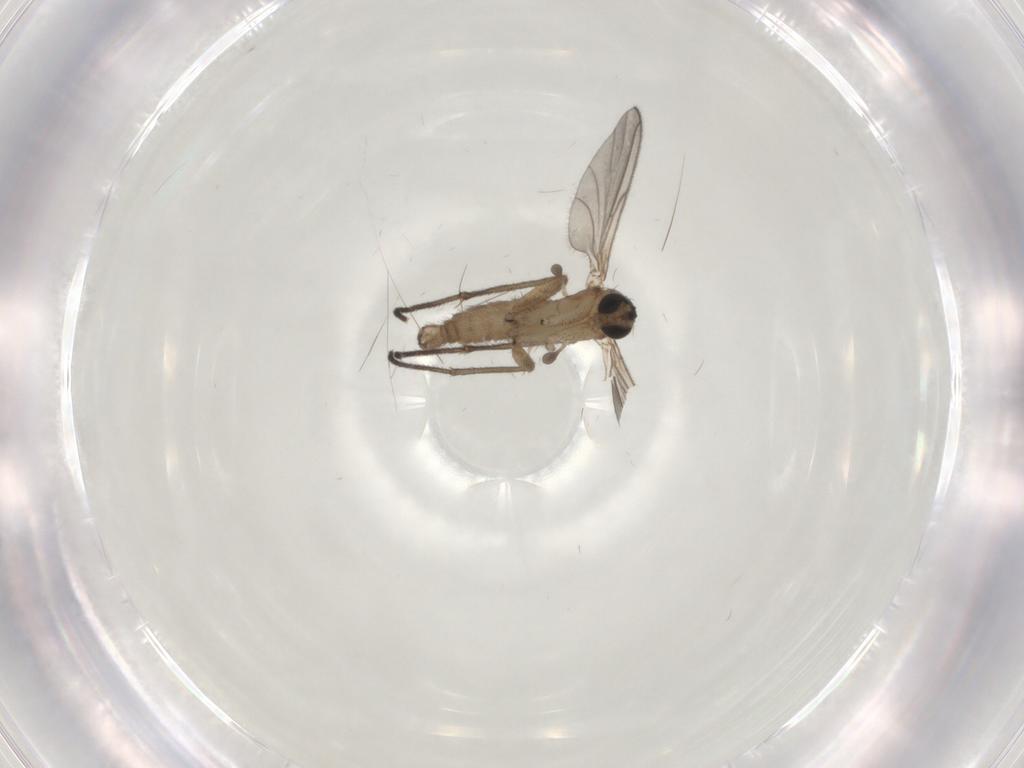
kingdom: Animalia
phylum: Arthropoda
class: Insecta
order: Diptera
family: Sciaridae
